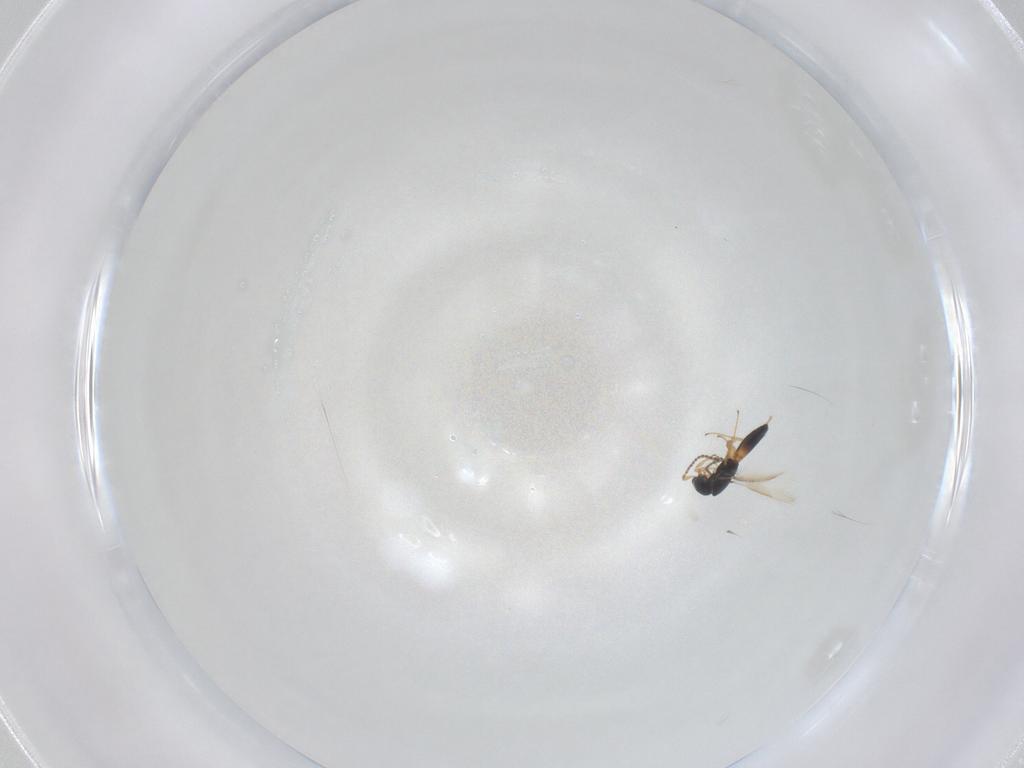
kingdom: Animalia
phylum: Arthropoda
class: Insecta
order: Hymenoptera
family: Scelionidae
